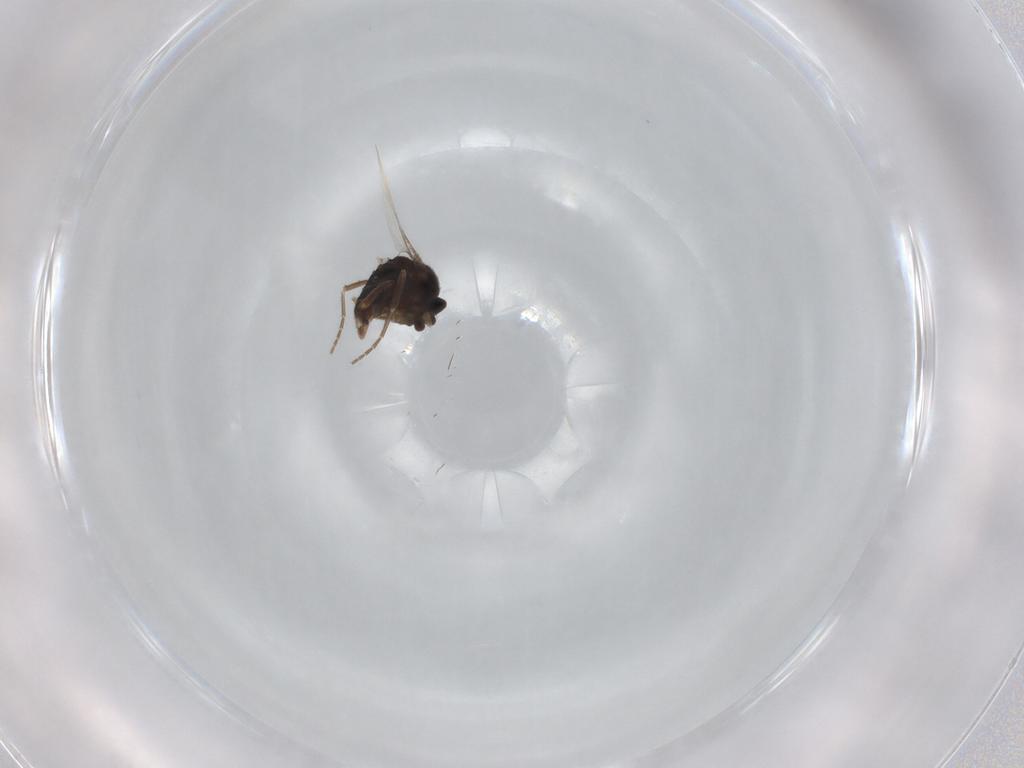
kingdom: Animalia
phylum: Arthropoda
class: Insecta
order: Diptera
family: Phoridae
